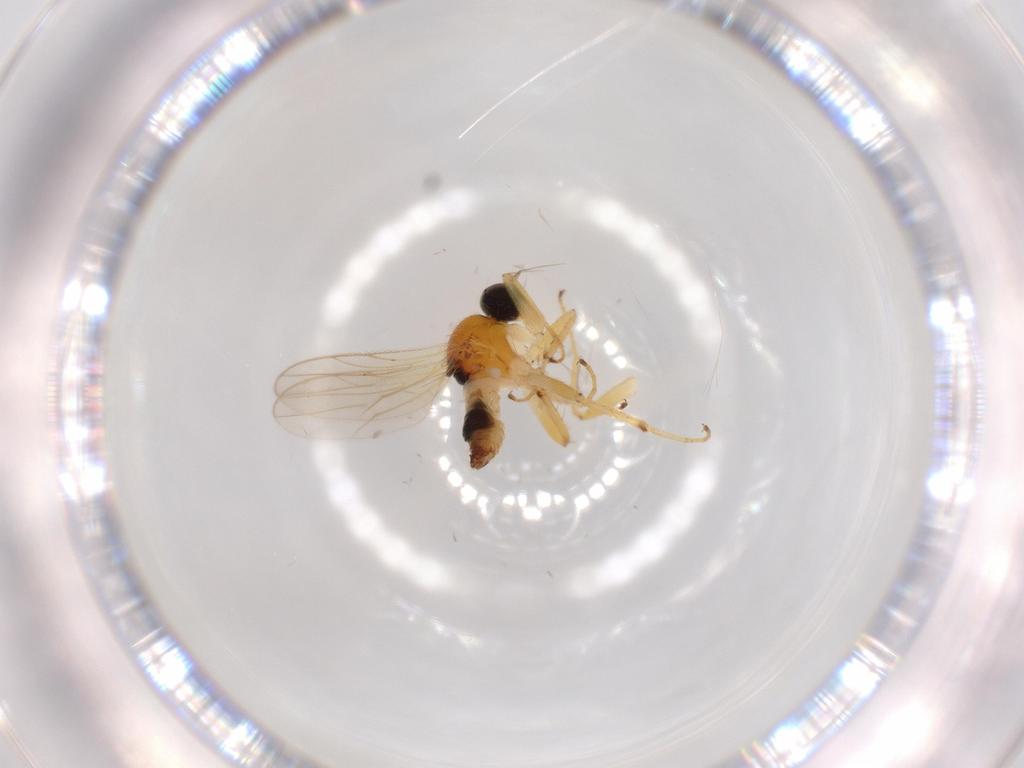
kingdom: Animalia
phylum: Arthropoda
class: Insecta
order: Diptera
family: Hybotidae
